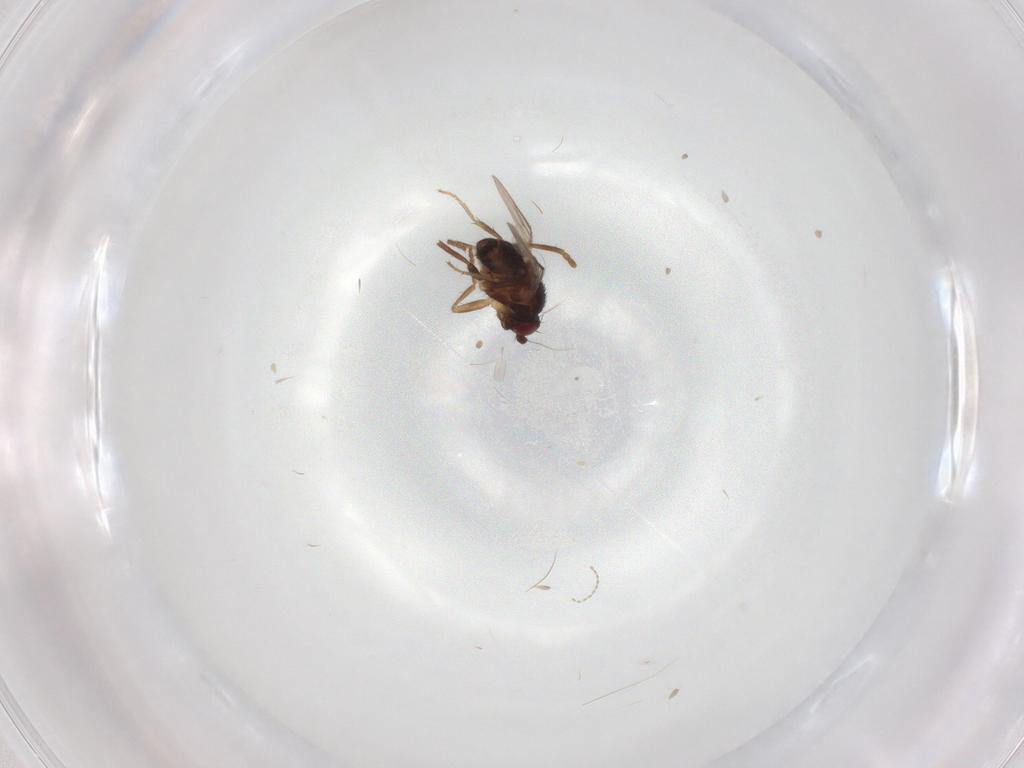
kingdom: Animalia
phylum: Arthropoda
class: Insecta
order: Diptera
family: Sphaeroceridae
